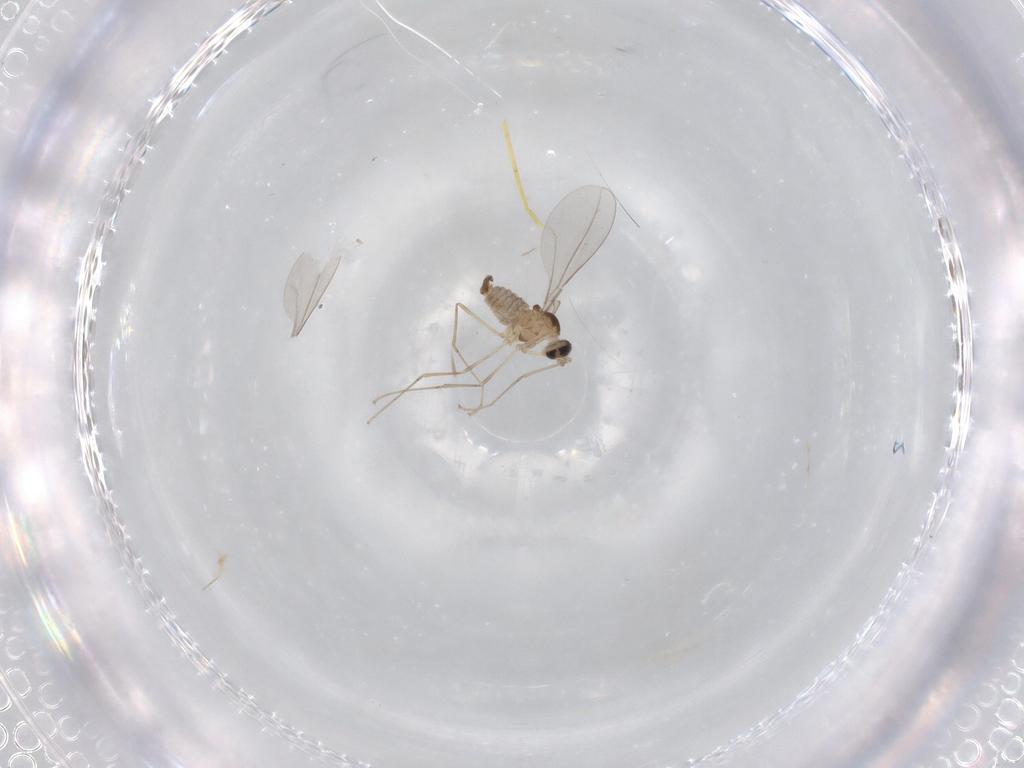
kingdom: Animalia
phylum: Arthropoda
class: Insecta
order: Diptera
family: Cecidomyiidae
